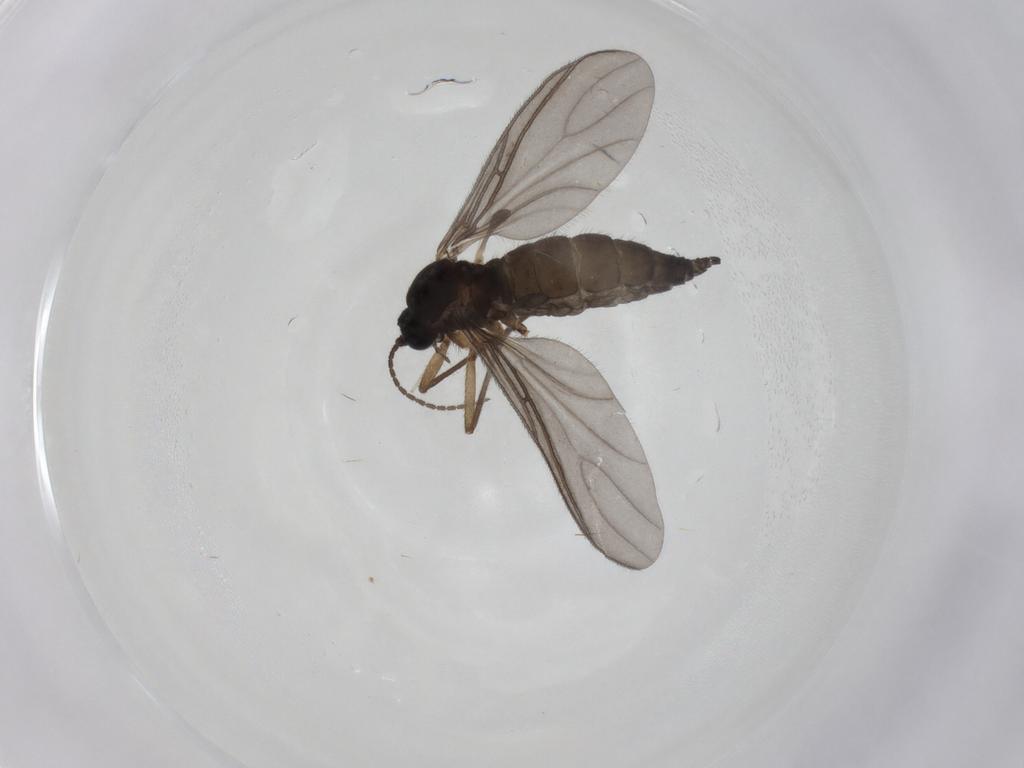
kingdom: Animalia
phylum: Arthropoda
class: Insecta
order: Diptera
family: Sciaridae
